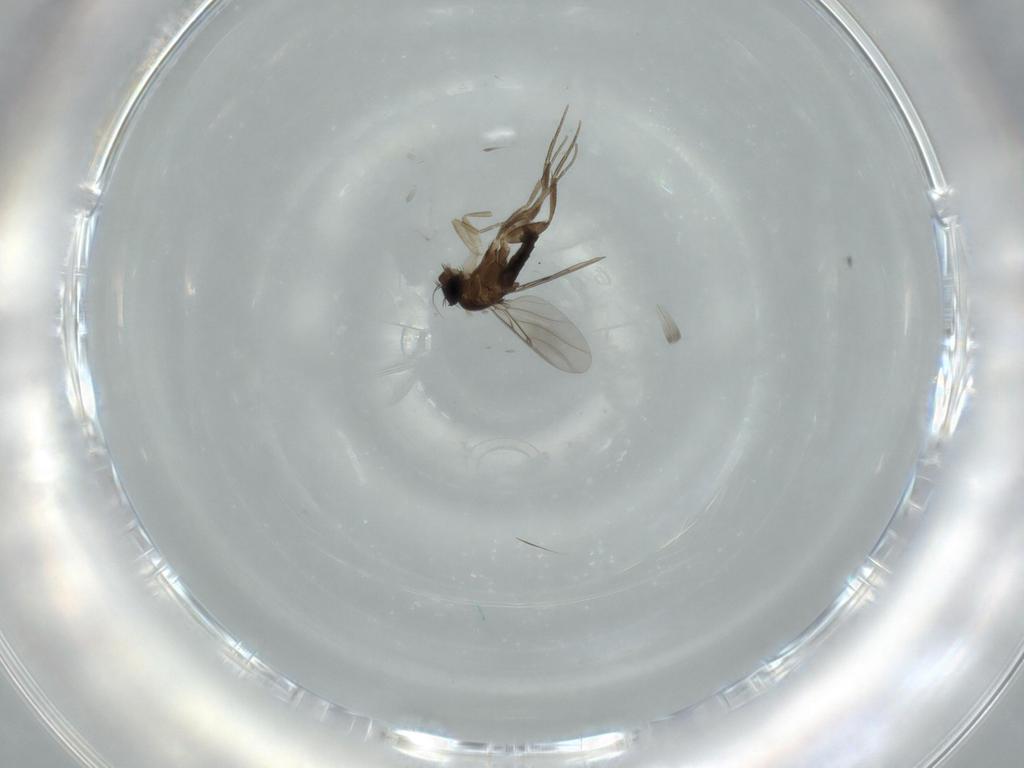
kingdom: Animalia
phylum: Arthropoda
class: Insecta
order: Diptera
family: Phoridae
